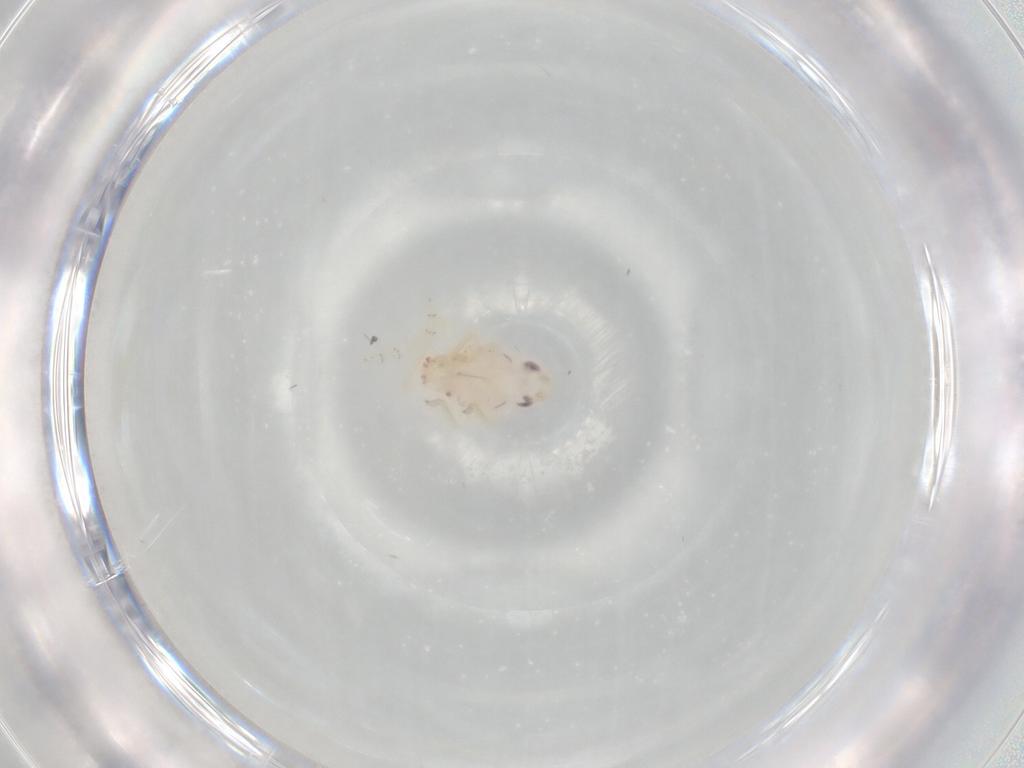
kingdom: Animalia
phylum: Arthropoda
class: Insecta
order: Hemiptera
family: Tropiduchidae
